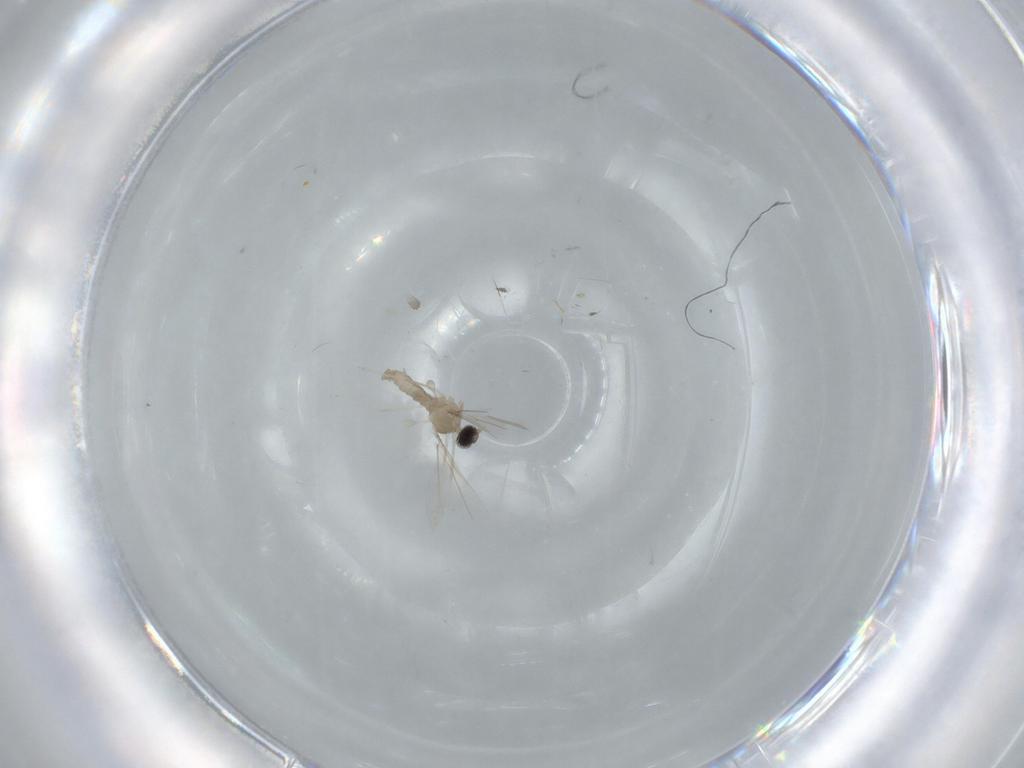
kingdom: Animalia
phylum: Arthropoda
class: Insecta
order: Diptera
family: Cecidomyiidae
